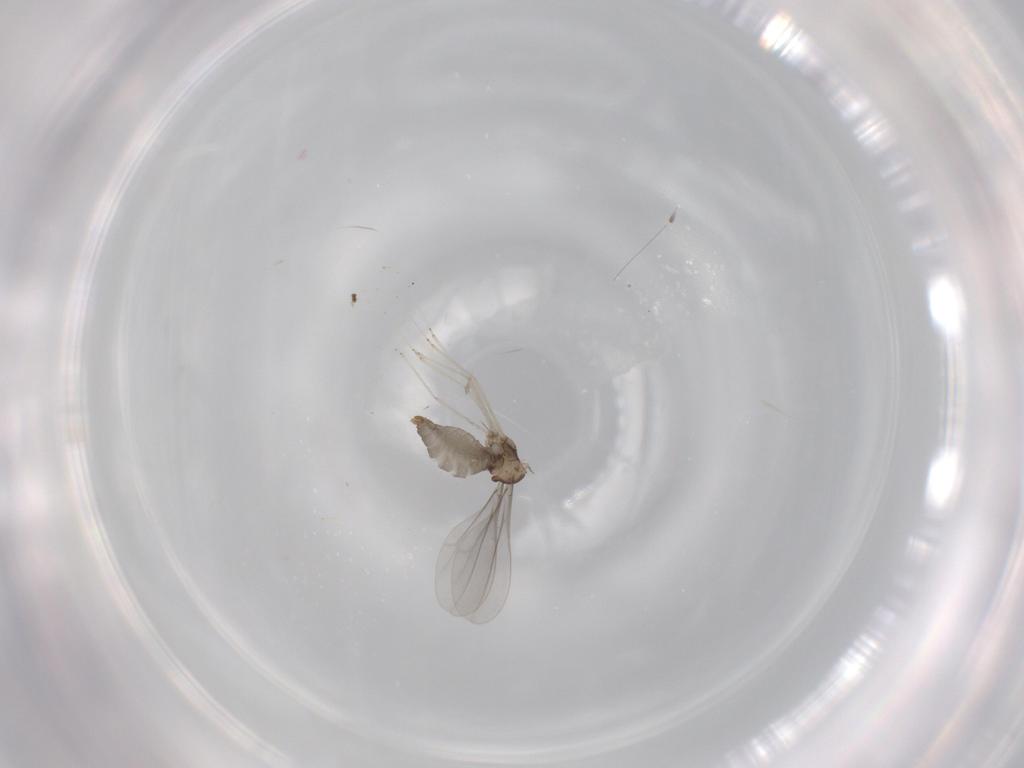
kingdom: Animalia
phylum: Arthropoda
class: Insecta
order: Diptera
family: Cecidomyiidae
